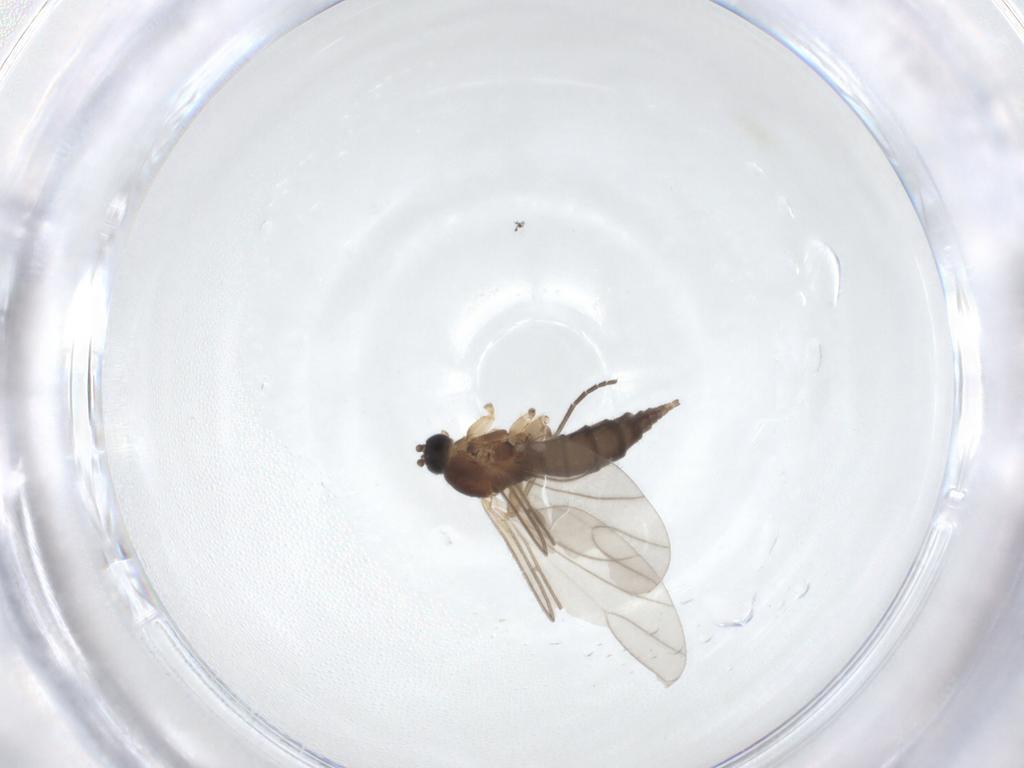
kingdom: Animalia
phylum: Arthropoda
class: Insecta
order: Diptera
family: Sciaridae
